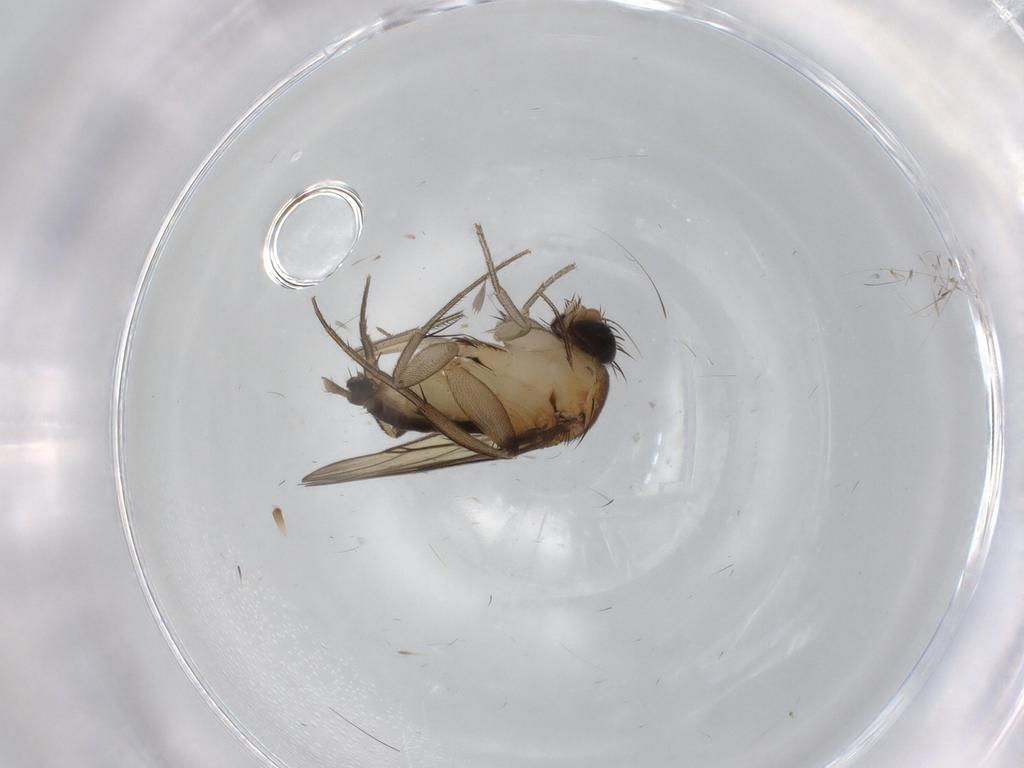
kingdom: Animalia
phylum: Arthropoda
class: Insecta
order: Diptera
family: Phoridae
